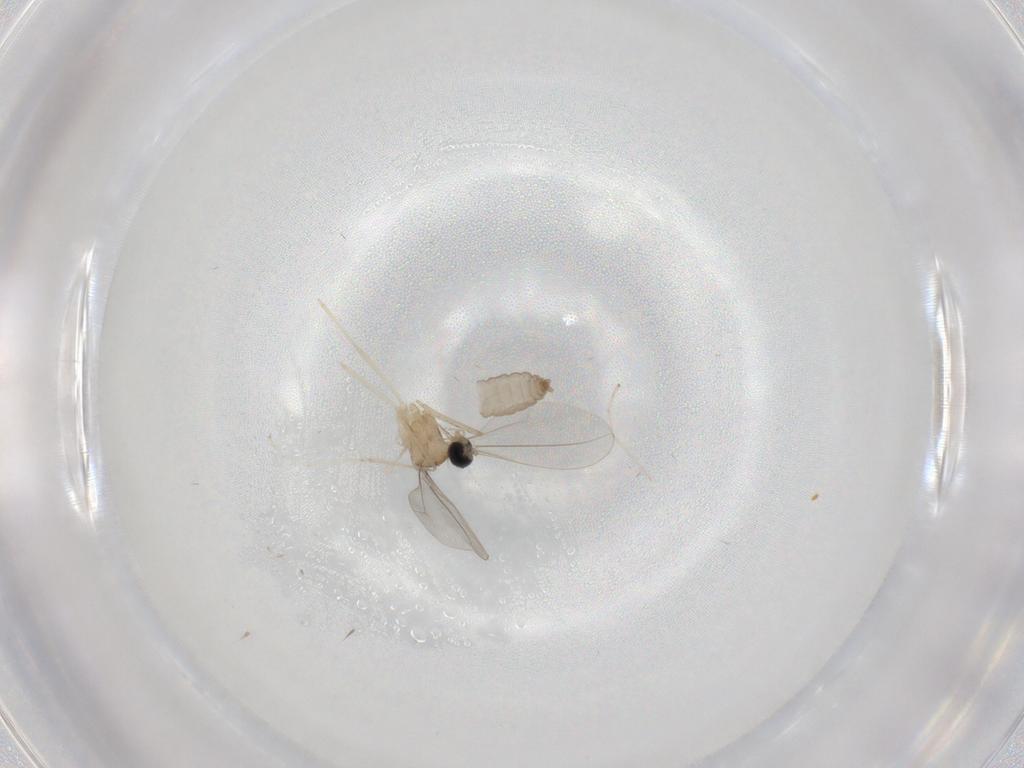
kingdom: Animalia
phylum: Arthropoda
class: Insecta
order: Diptera
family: Cecidomyiidae
